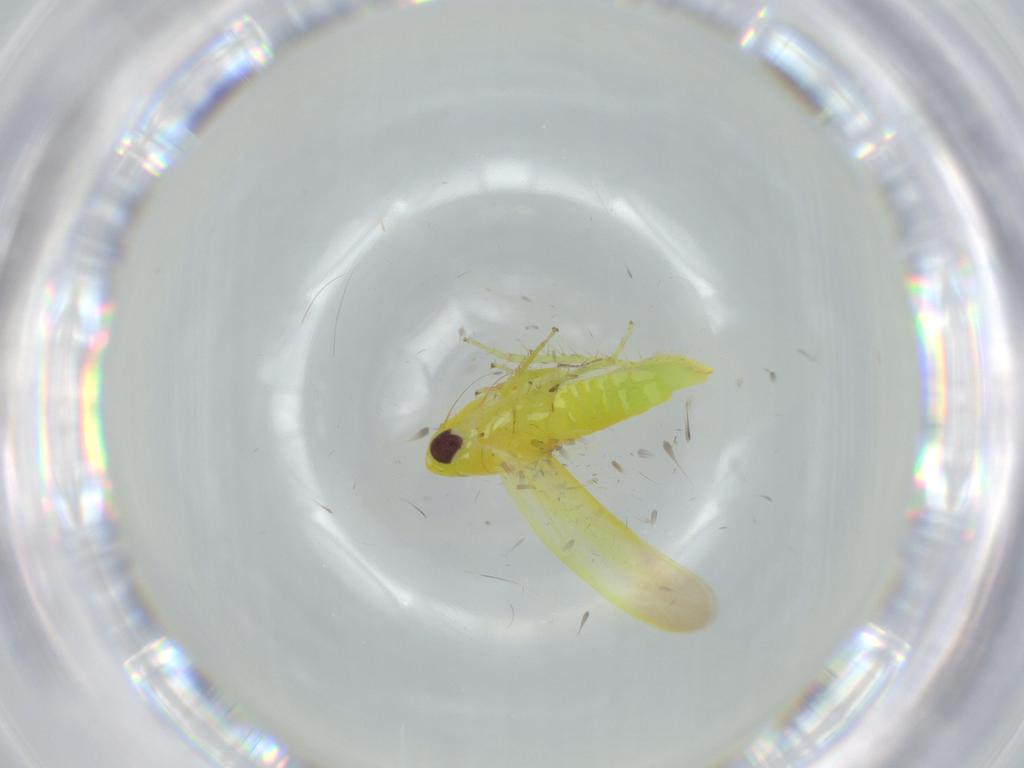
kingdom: Animalia
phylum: Arthropoda
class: Insecta
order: Hemiptera
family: Cicadellidae
